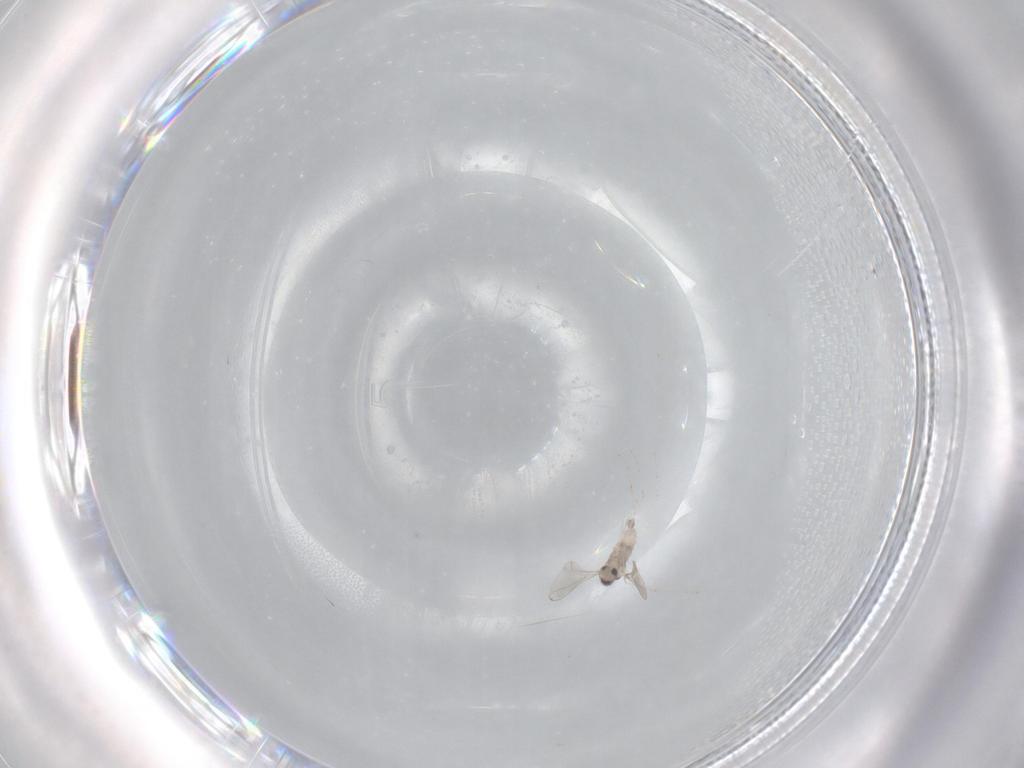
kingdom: Animalia
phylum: Arthropoda
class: Insecta
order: Diptera
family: Cecidomyiidae
